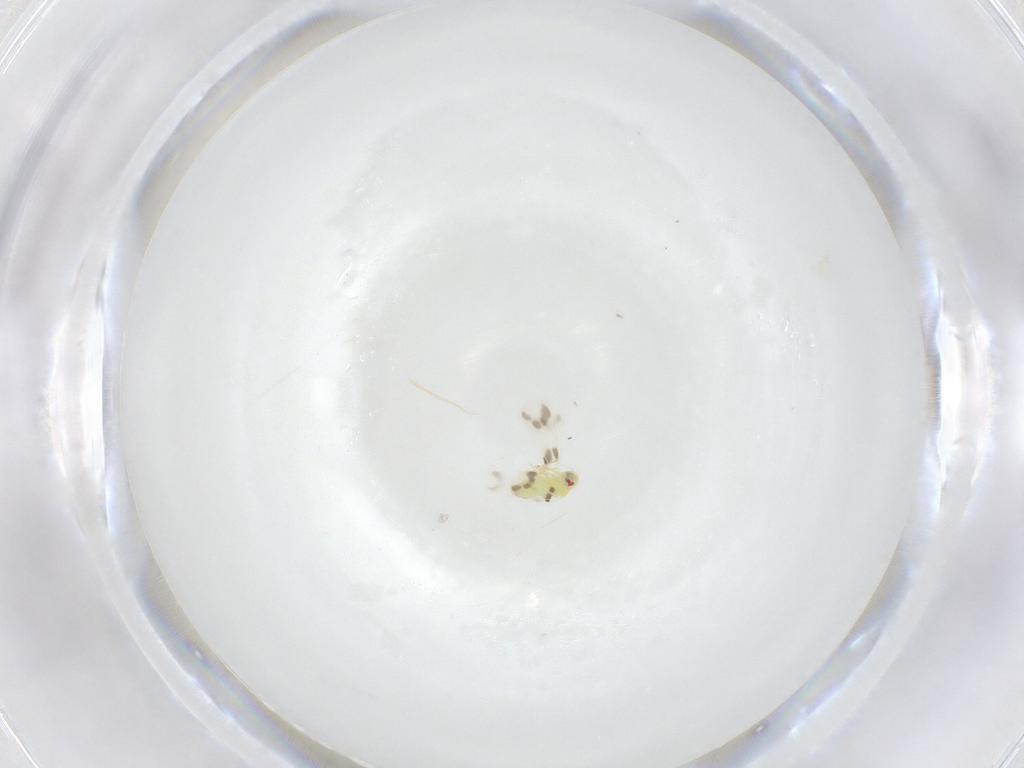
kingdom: Animalia
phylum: Arthropoda
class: Insecta
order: Hemiptera
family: Aleyrodidae
